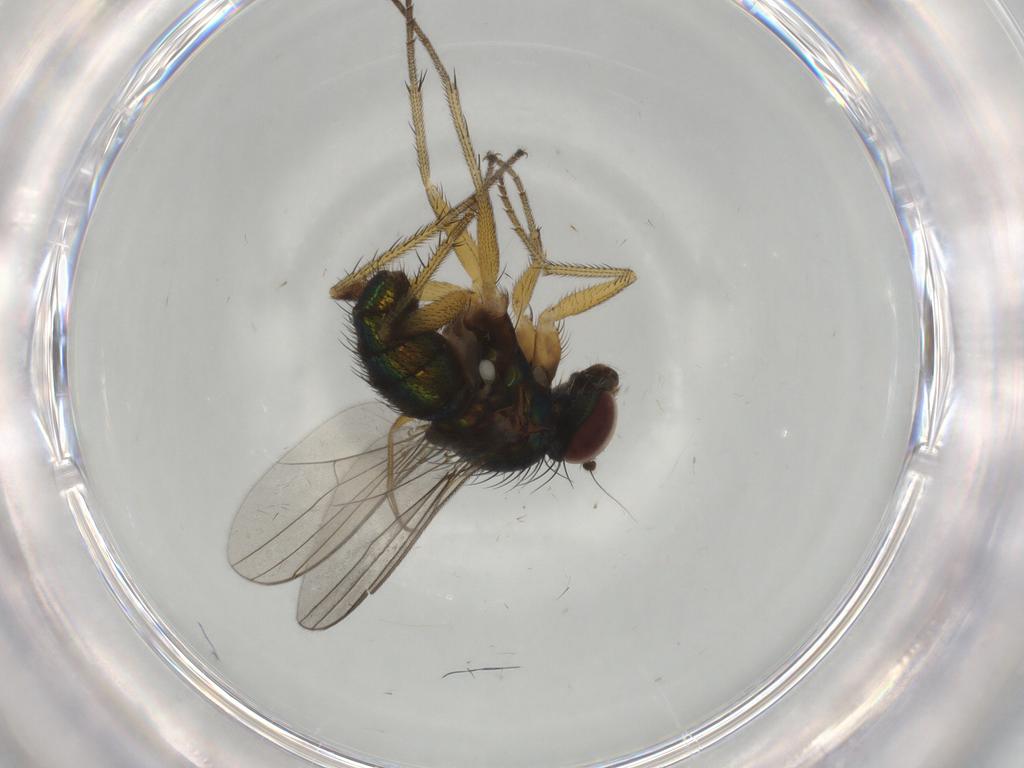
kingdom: Animalia
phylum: Arthropoda
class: Insecta
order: Diptera
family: Dolichopodidae
